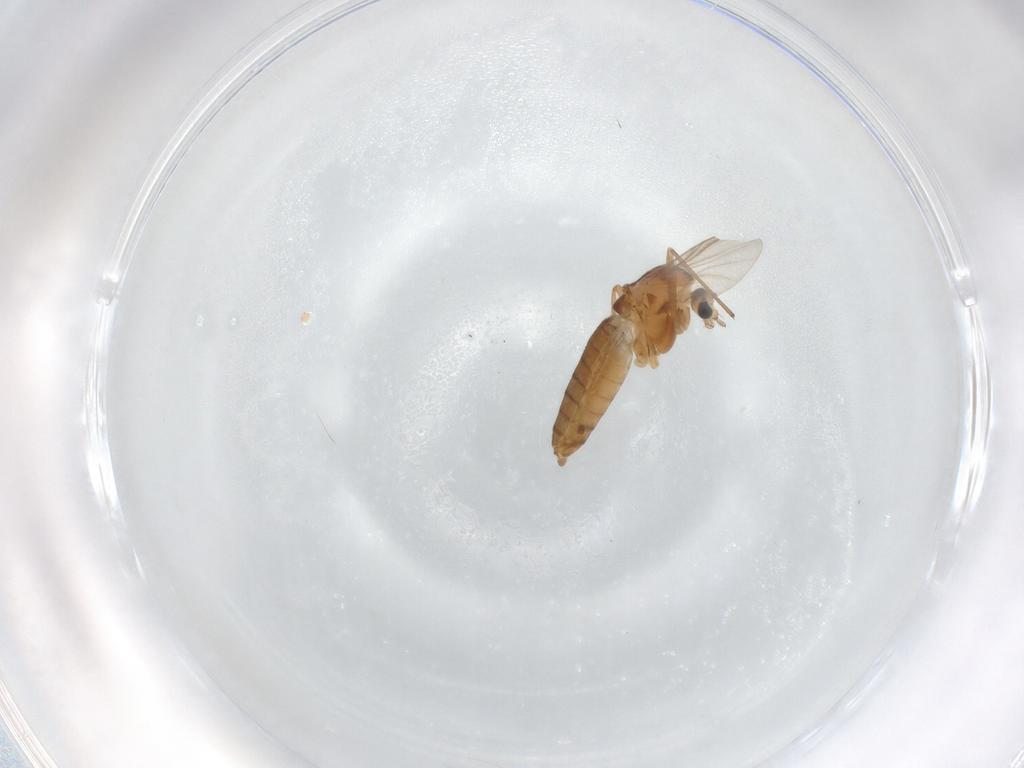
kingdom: Animalia
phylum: Arthropoda
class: Insecta
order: Diptera
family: Chironomidae
